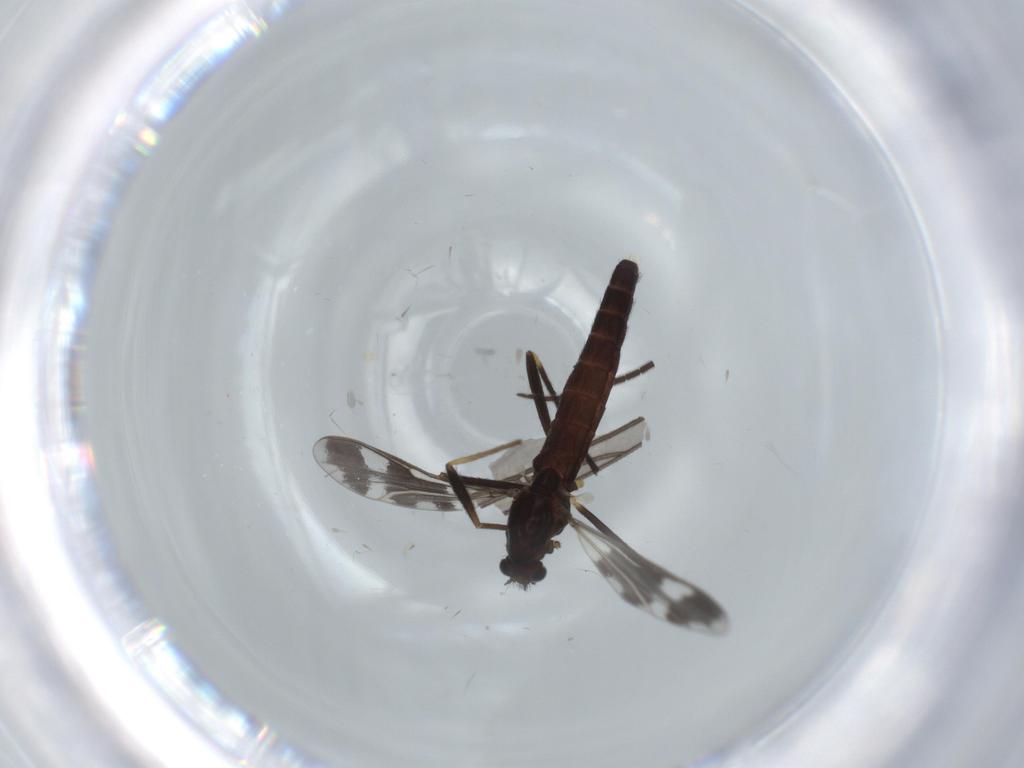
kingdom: Animalia
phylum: Arthropoda
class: Insecta
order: Diptera
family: Chironomidae
